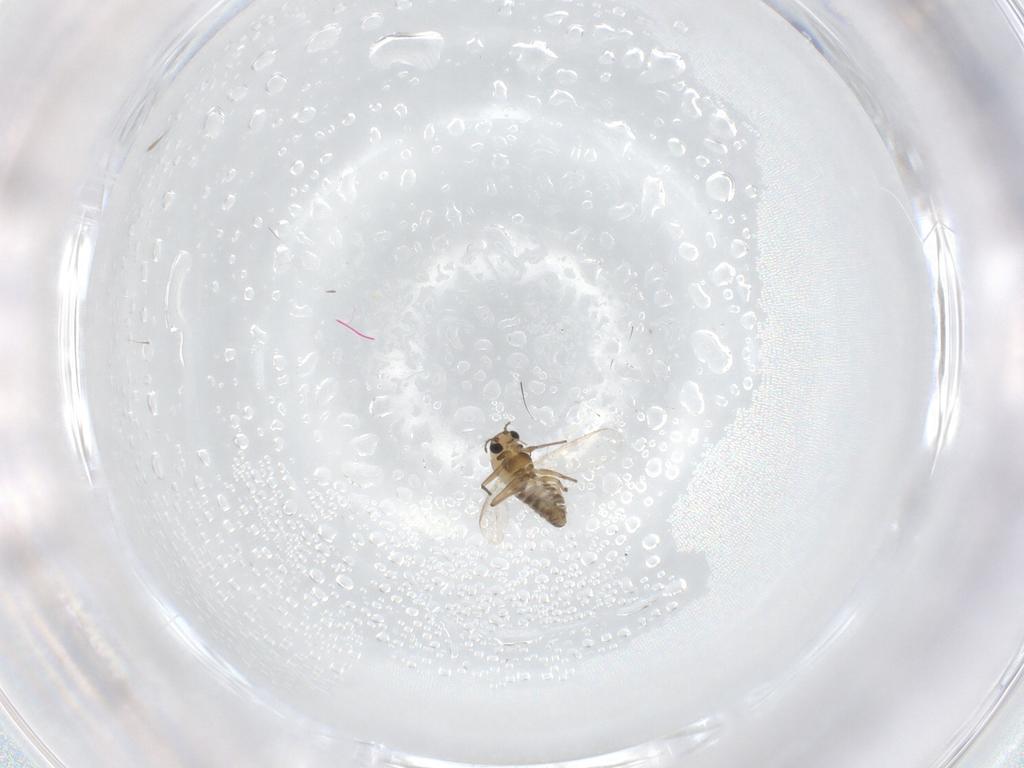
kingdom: Animalia
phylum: Arthropoda
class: Insecta
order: Diptera
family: Chironomidae
